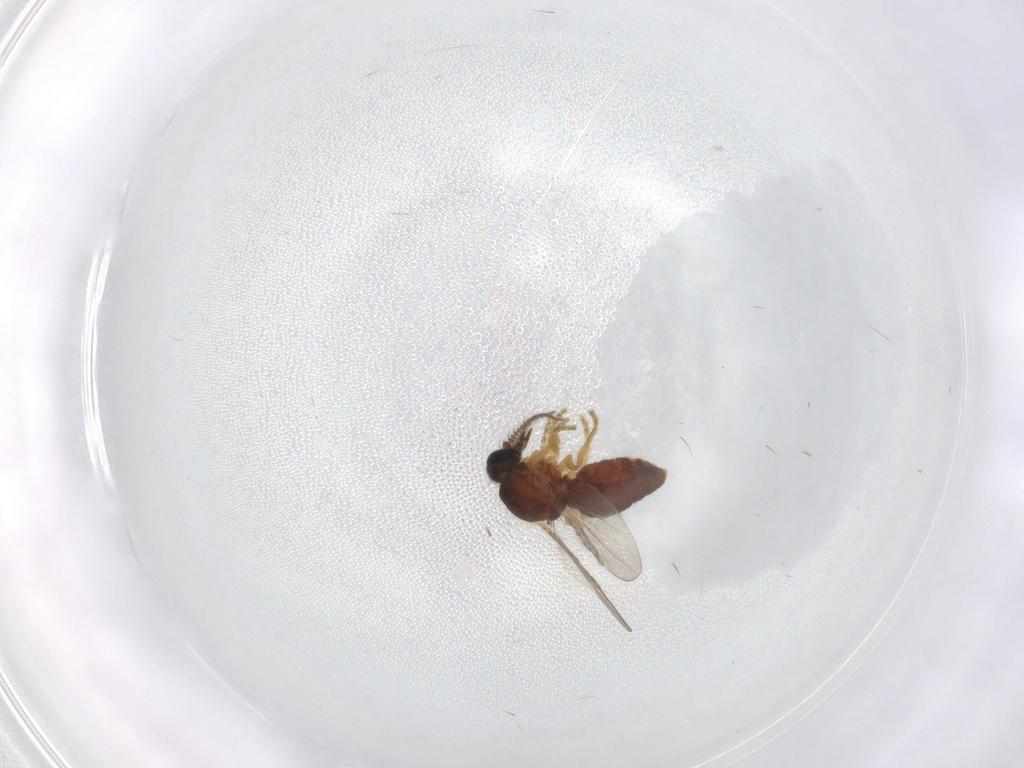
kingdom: Animalia
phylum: Arthropoda
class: Insecta
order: Diptera
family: Ceratopogonidae
